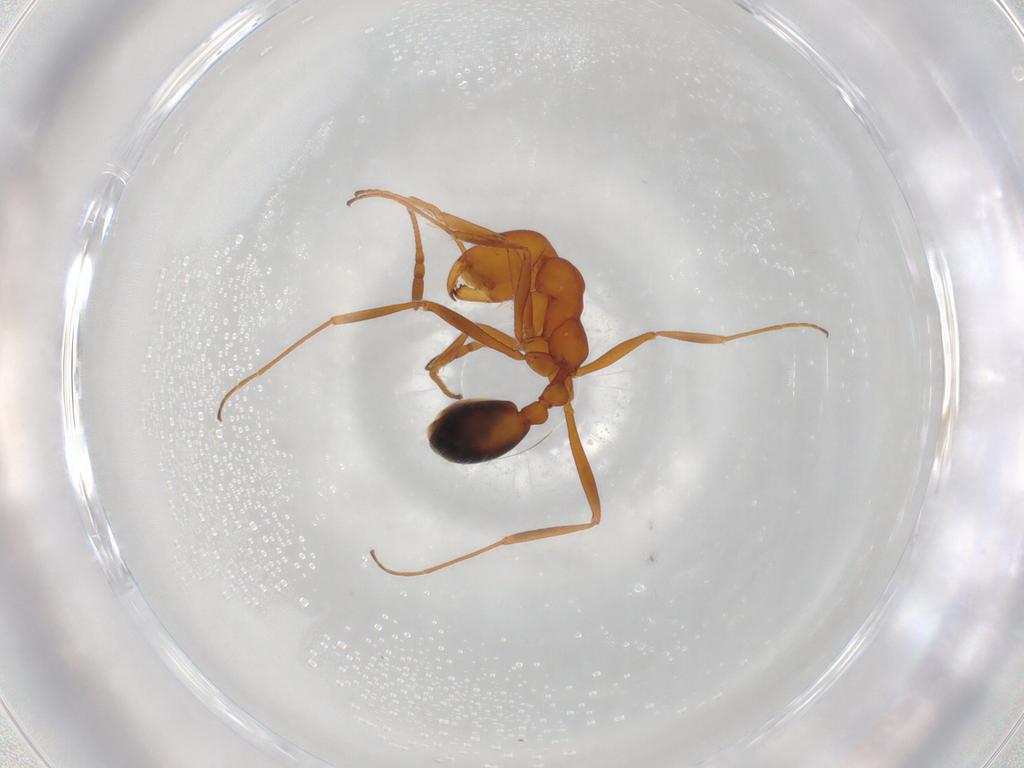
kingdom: Animalia
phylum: Arthropoda
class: Insecta
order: Hymenoptera
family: Formicidae
